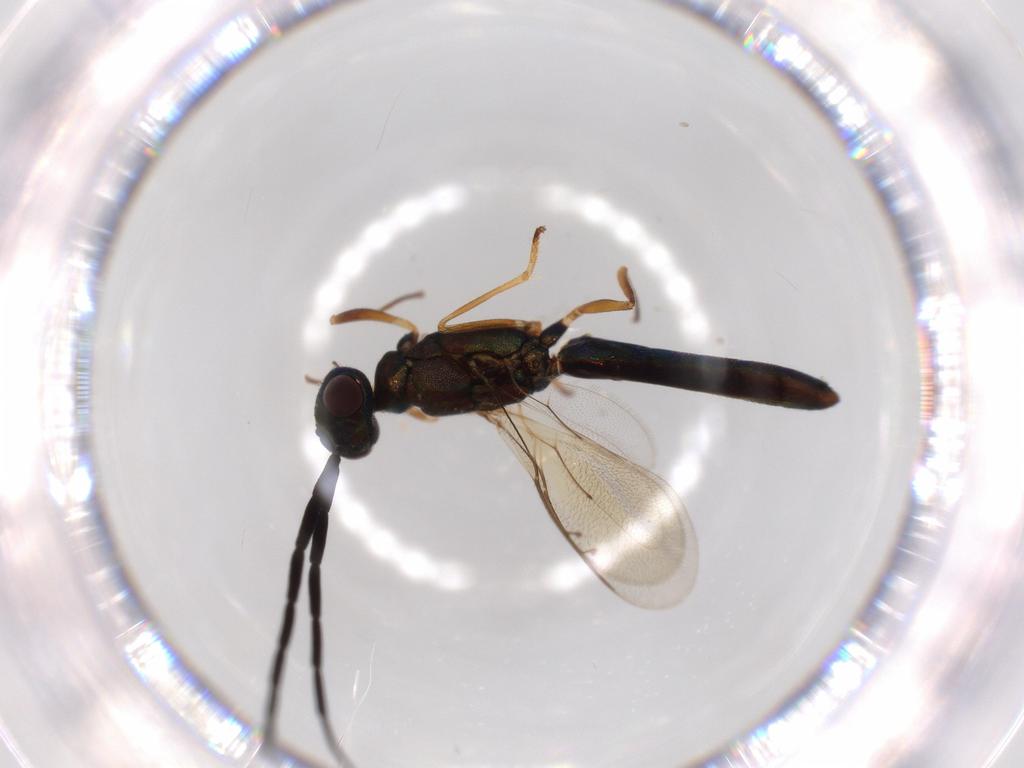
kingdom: Animalia
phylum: Arthropoda
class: Insecta
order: Hymenoptera
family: Eupelmidae
